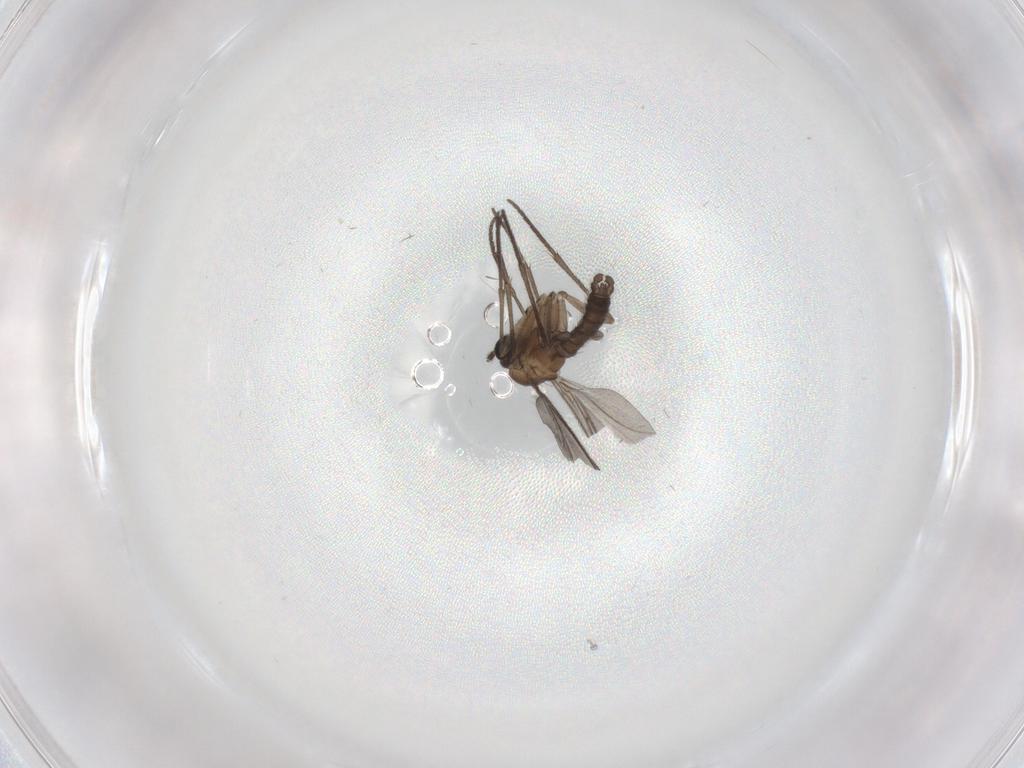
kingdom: Animalia
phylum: Arthropoda
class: Insecta
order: Diptera
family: Sciaridae
